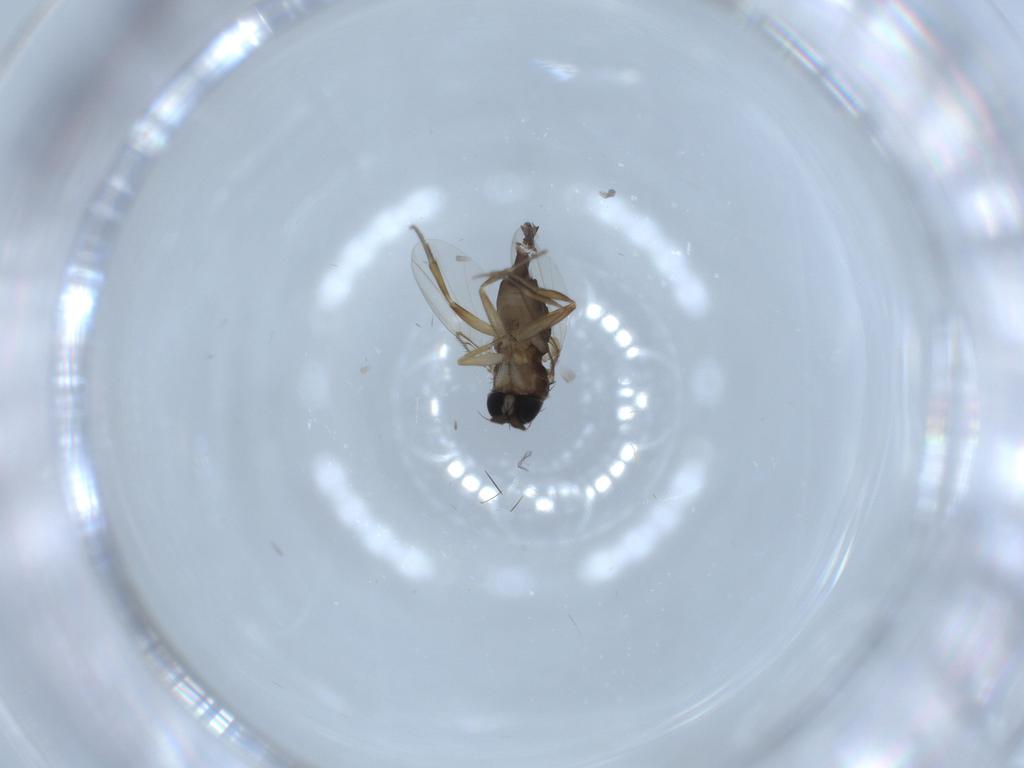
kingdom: Animalia
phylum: Arthropoda
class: Insecta
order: Diptera
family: Phoridae
